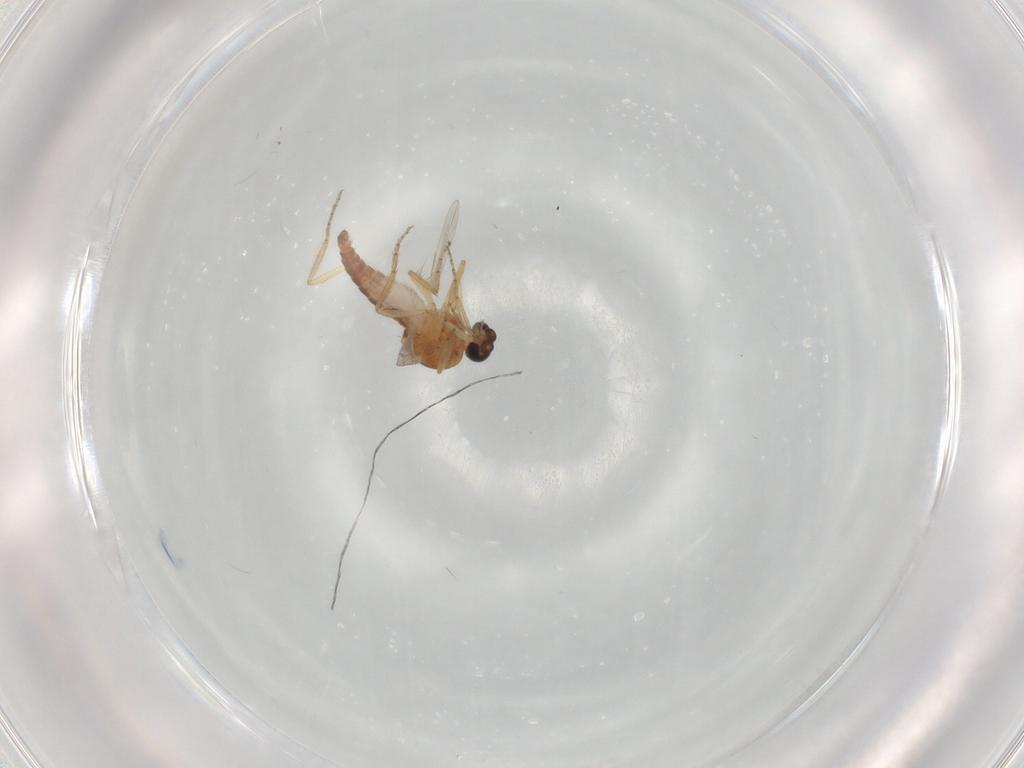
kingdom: Animalia
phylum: Arthropoda
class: Insecta
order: Diptera
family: Ceratopogonidae
